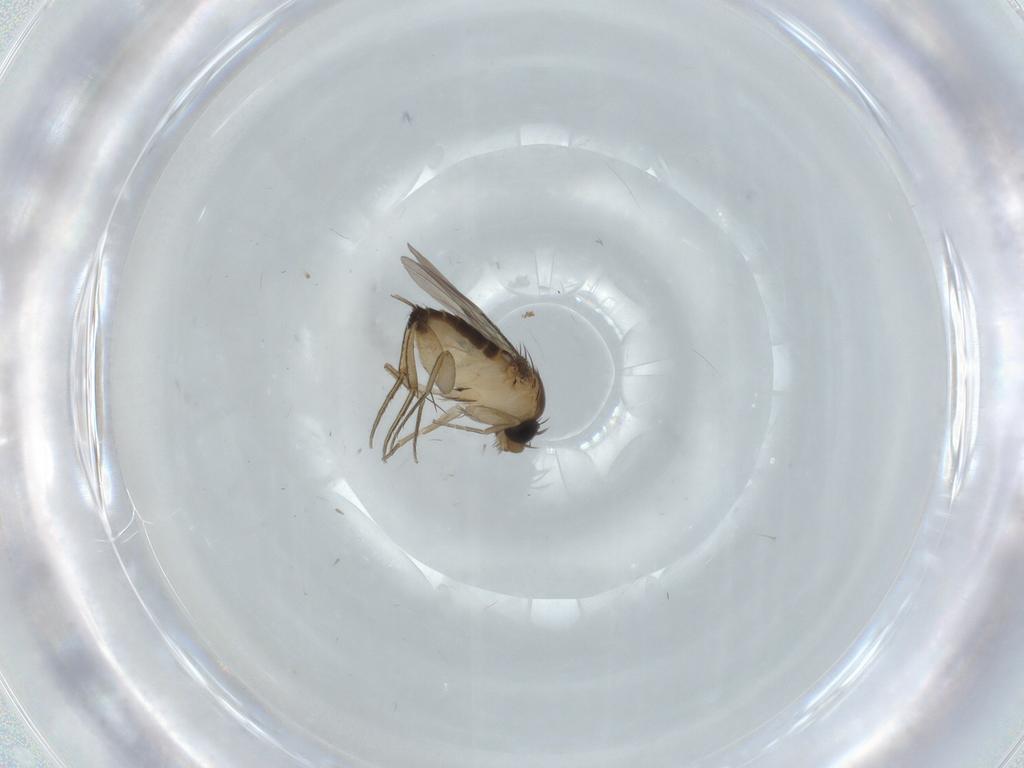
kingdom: Animalia
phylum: Arthropoda
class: Insecta
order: Diptera
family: Phoridae
